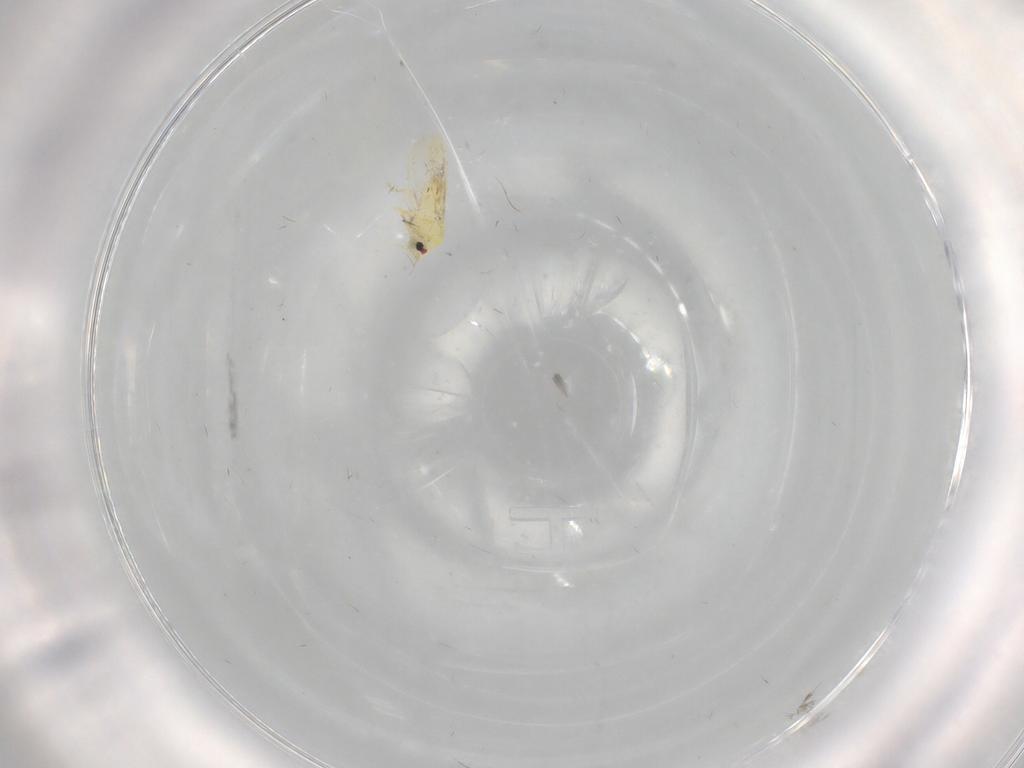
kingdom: Animalia
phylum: Arthropoda
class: Insecta
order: Hemiptera
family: Aleyrodidae
